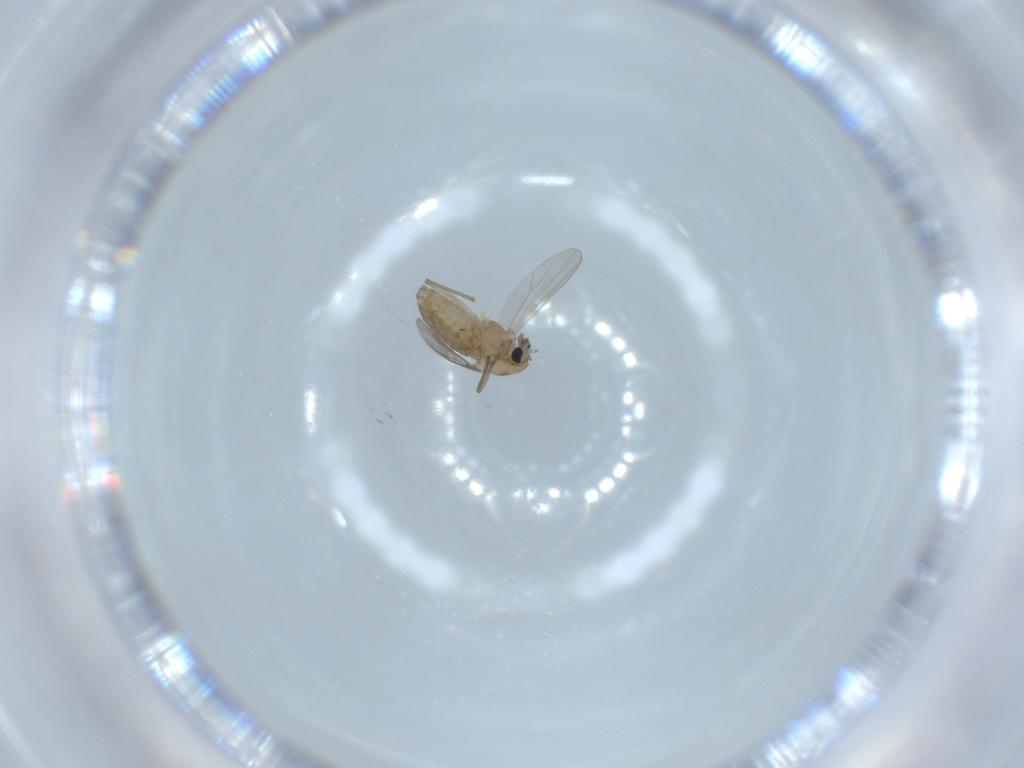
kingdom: Animalia
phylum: Arthropoda
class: Insecta
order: Diptera
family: Chironomidae
